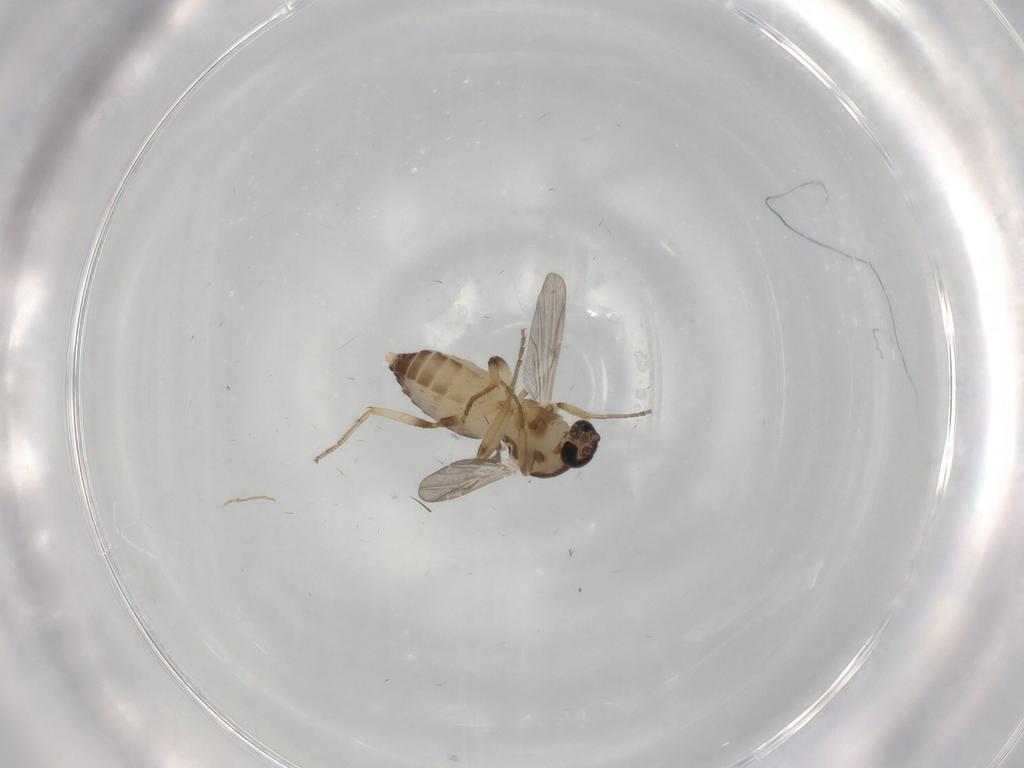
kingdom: Animalia
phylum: Arthropoda
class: Insecta
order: Diptera
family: Ceratopogonidae
